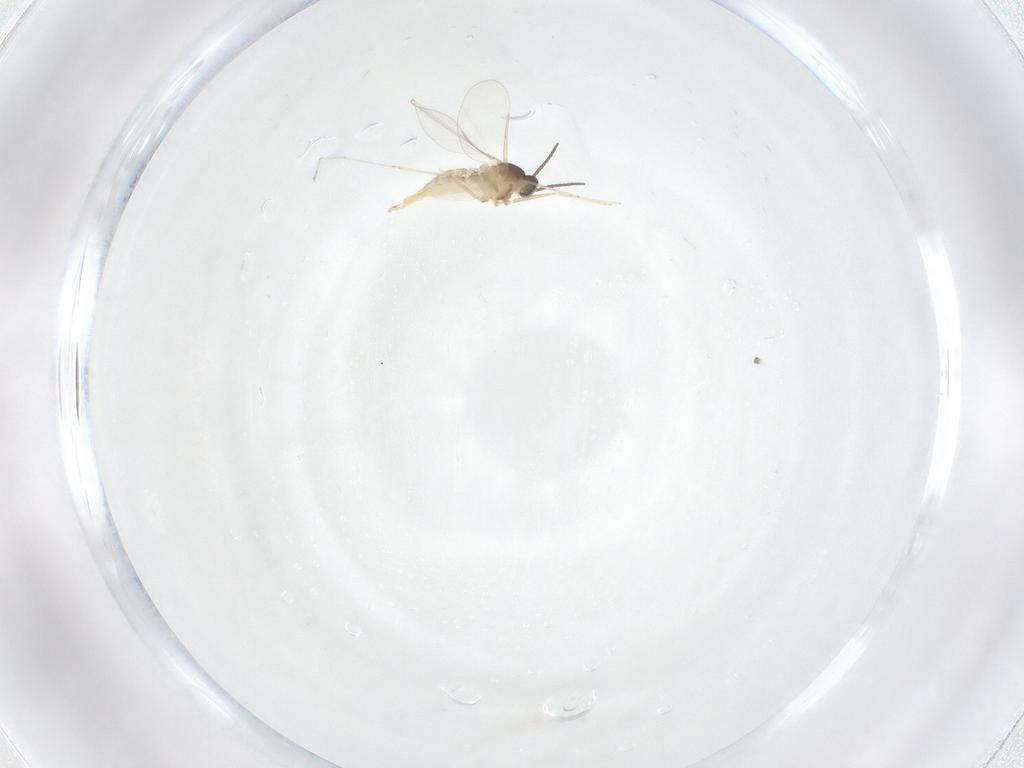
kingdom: Animalia
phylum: Arthropoda
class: Insecta
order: Diptera
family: Cecidomyiidae
